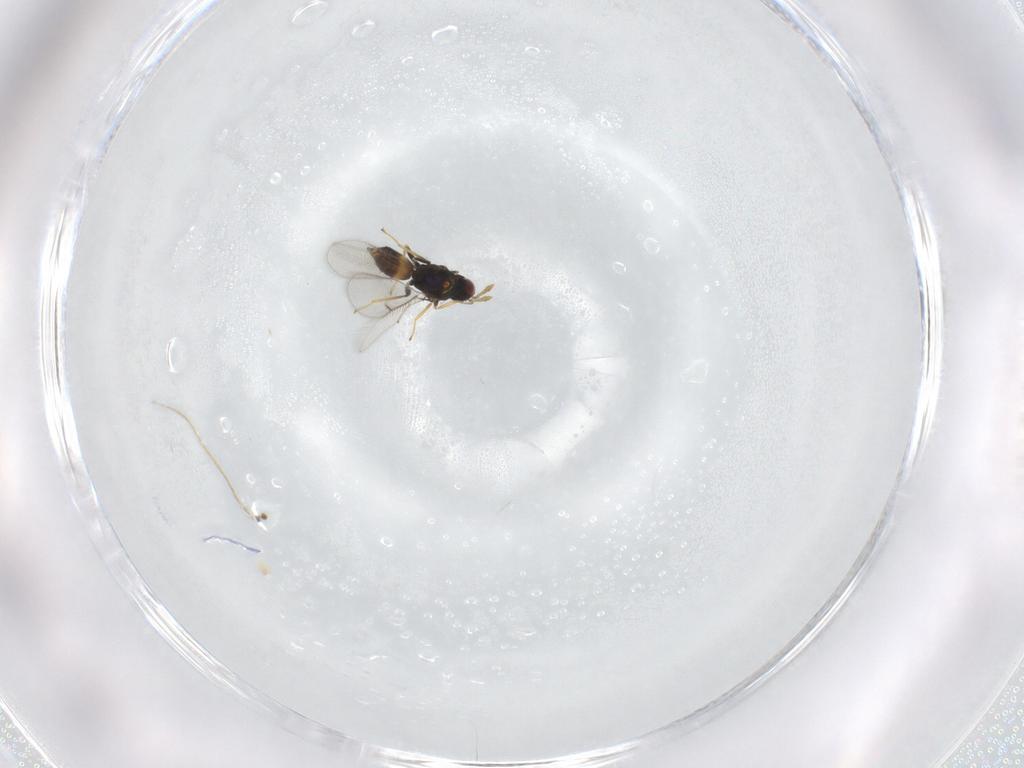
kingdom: Animalia
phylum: Arthropoda
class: Insecta
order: Hymenoptera
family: Eulophidae
